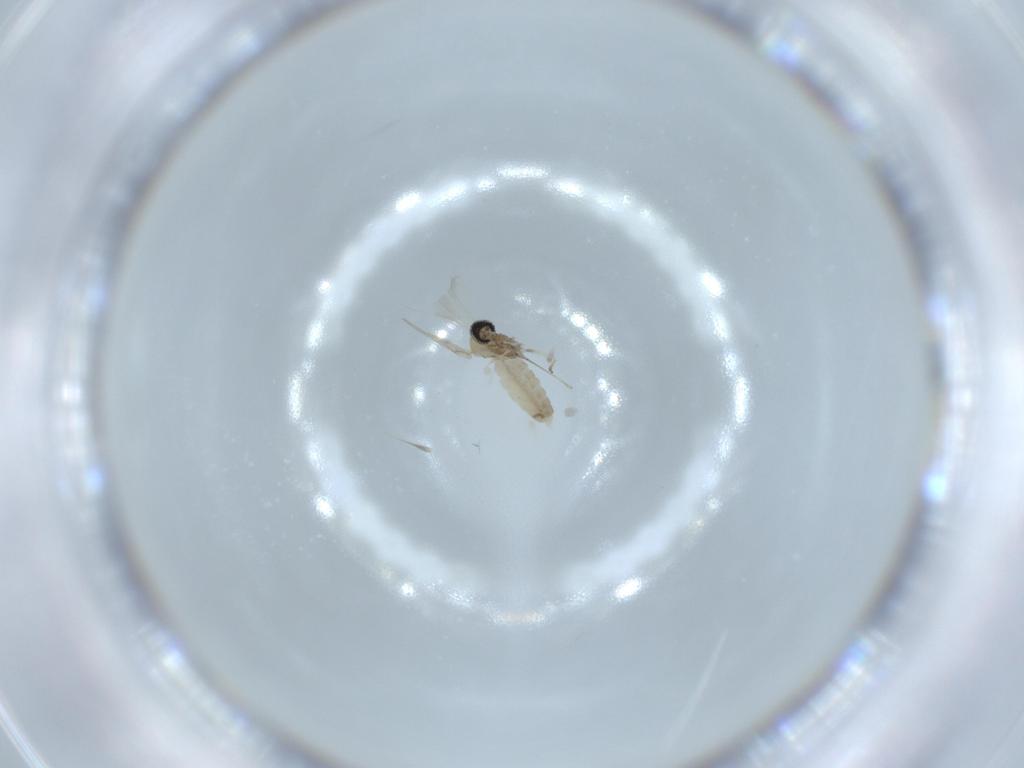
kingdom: Animalia
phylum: Arthropoda
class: Insecta
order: Diptera
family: Cecidomyiidae
